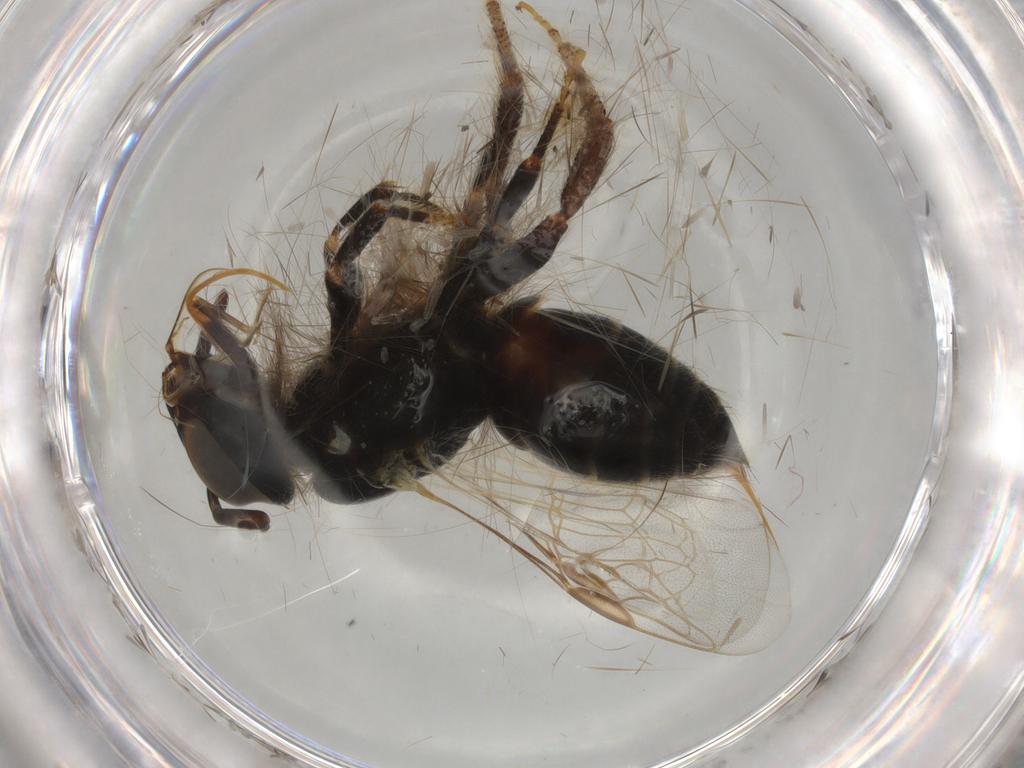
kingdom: Animalia
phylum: Arthropoda
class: Insecta
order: Hymenoptera
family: Apidae
